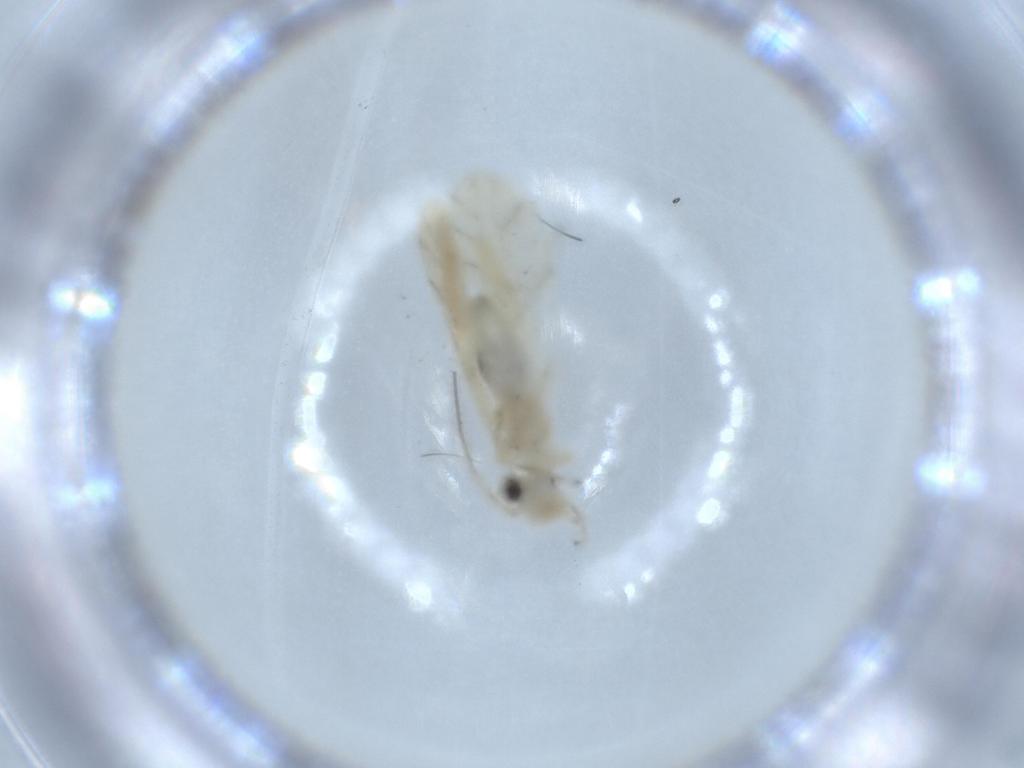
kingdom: Animalia
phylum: Arthropoda
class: Insecta
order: Psocodea
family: Caeciliusidae
